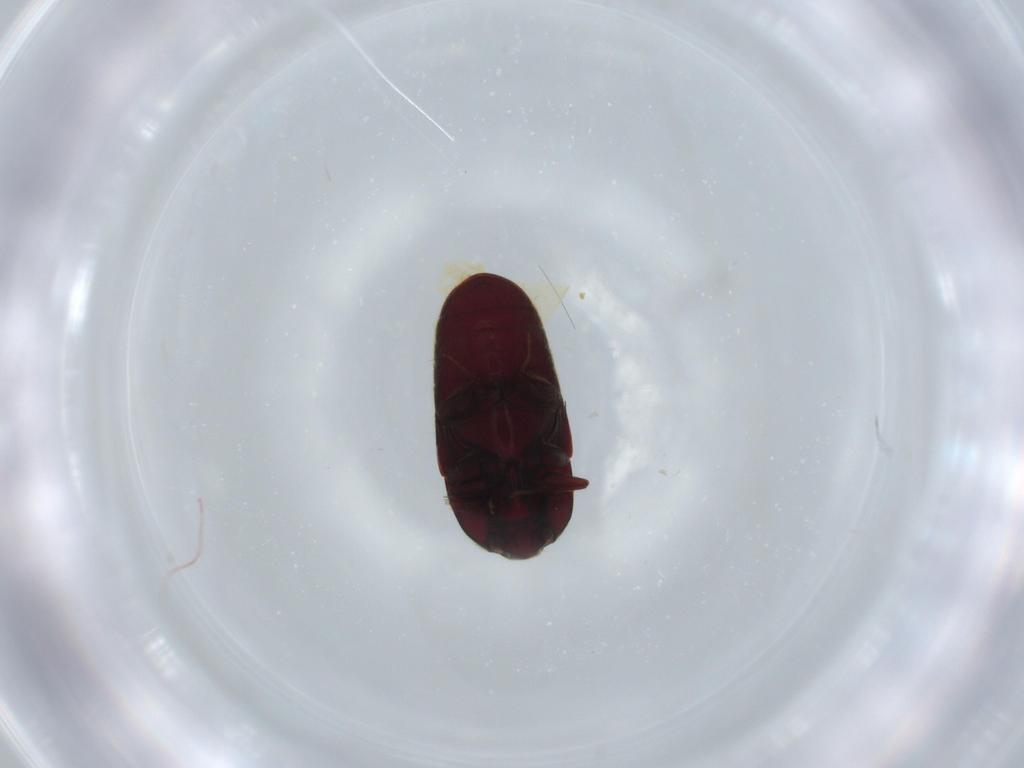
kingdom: Animalia
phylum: Arthropoda
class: Insecta
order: Coleoptera
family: Throscidae
